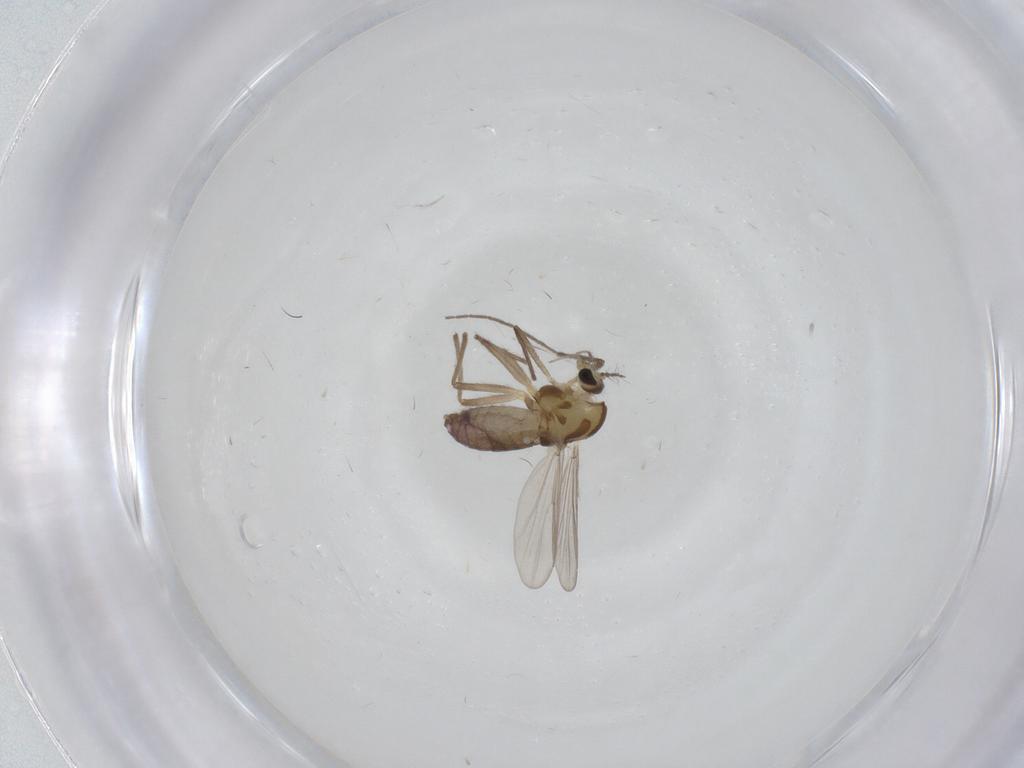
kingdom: Animalia
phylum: Arthropoda
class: Insecta
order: Diptera
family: Chironomidae
